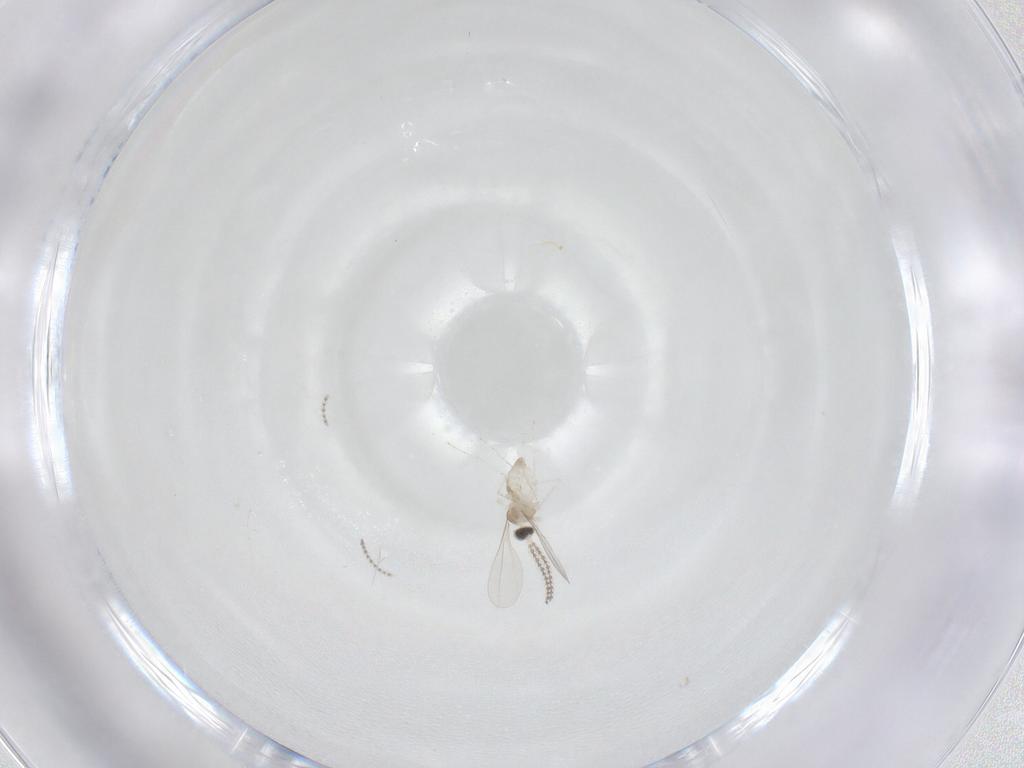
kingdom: Animalia
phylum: Arthropoda
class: Insecta
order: Diptera
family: Cecidomyiidae
